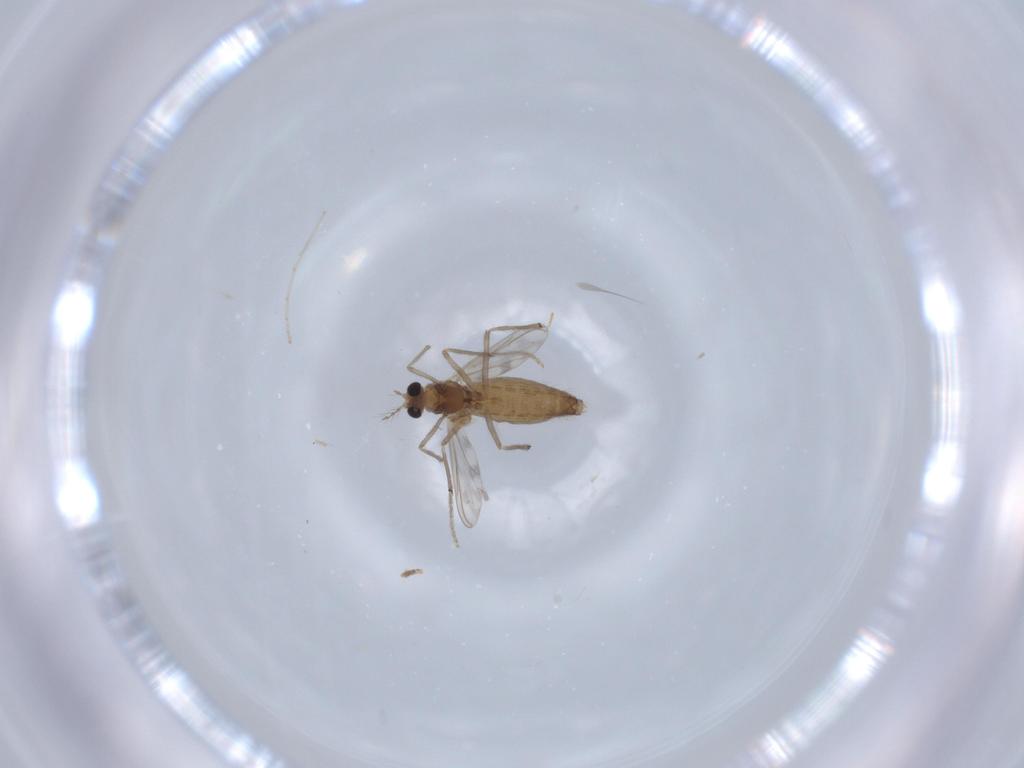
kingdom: Animalia
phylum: Arthropoda
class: Insecta
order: Diptera
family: Chironomidae
